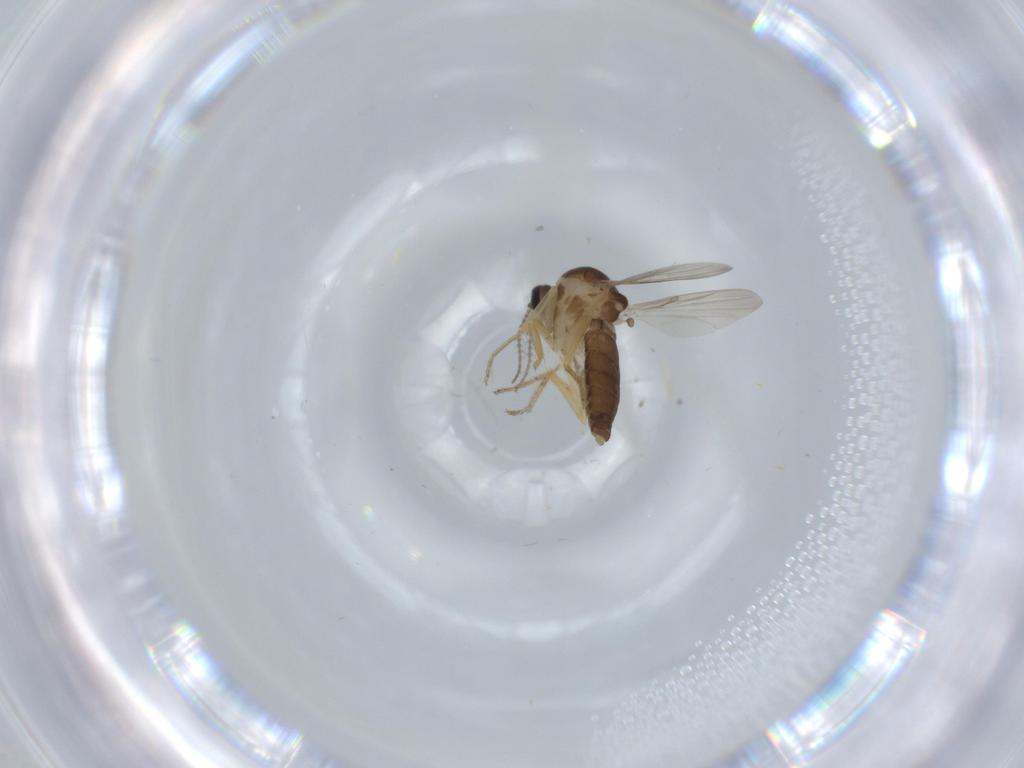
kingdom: Animalia
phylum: Arthropoda
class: Insecta
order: Diptera
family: Ceratopogonidae
